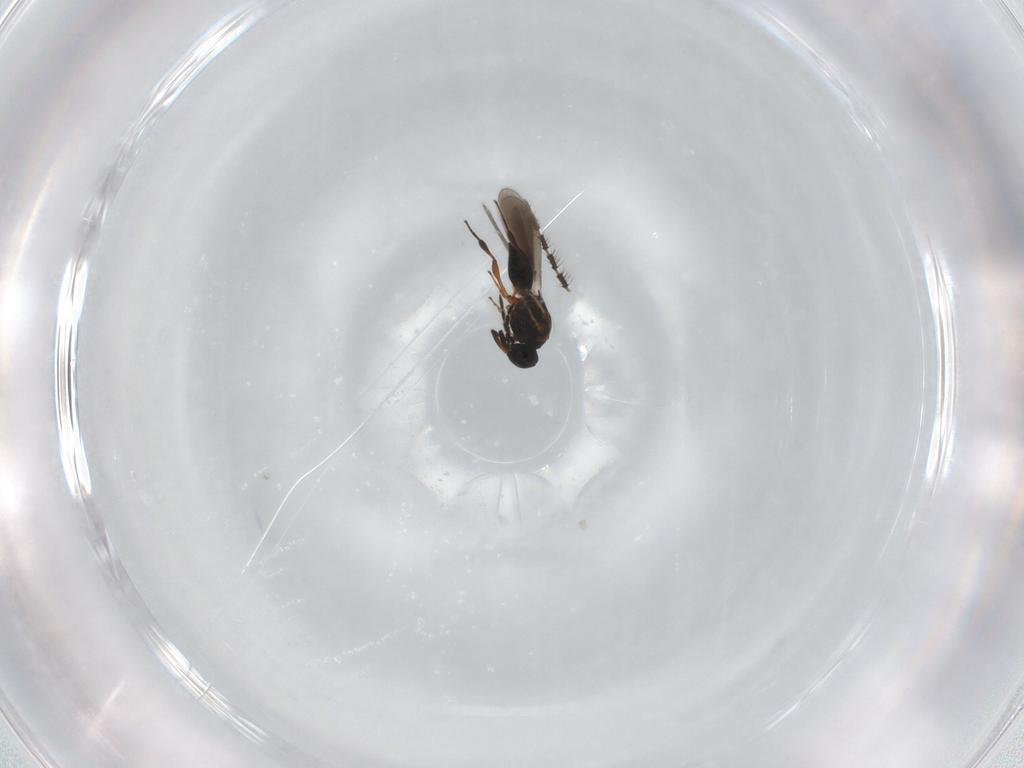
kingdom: Animalia
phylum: Arthropoda
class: Insecta
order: Hymenoptera
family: Platygastridae
